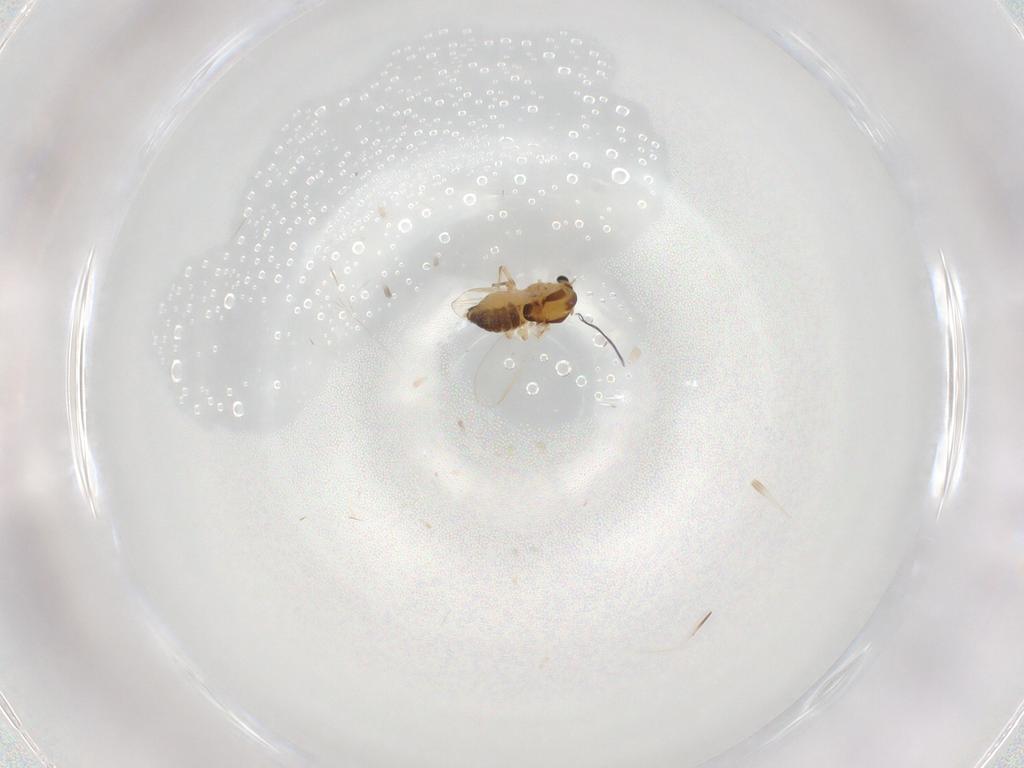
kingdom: Animalia
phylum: Arthropoda
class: Insecta
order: Diptera
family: Chironomidae
